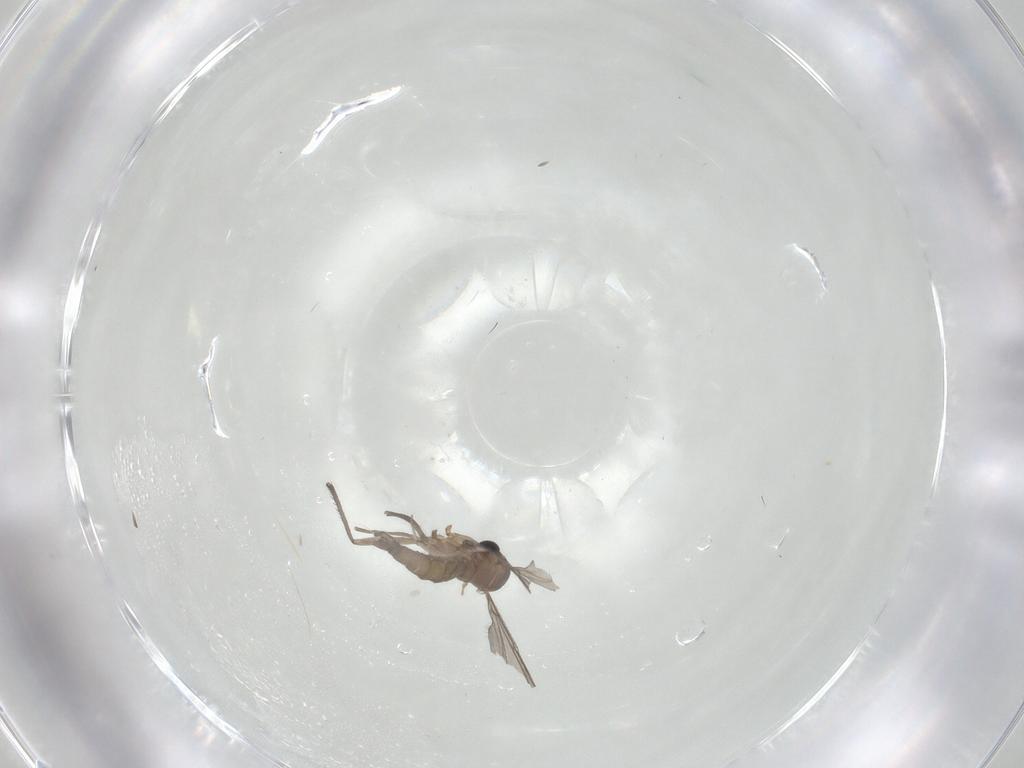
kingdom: Animalia
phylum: Arthropoda
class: Insecta
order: Diptera
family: Sciaridae
